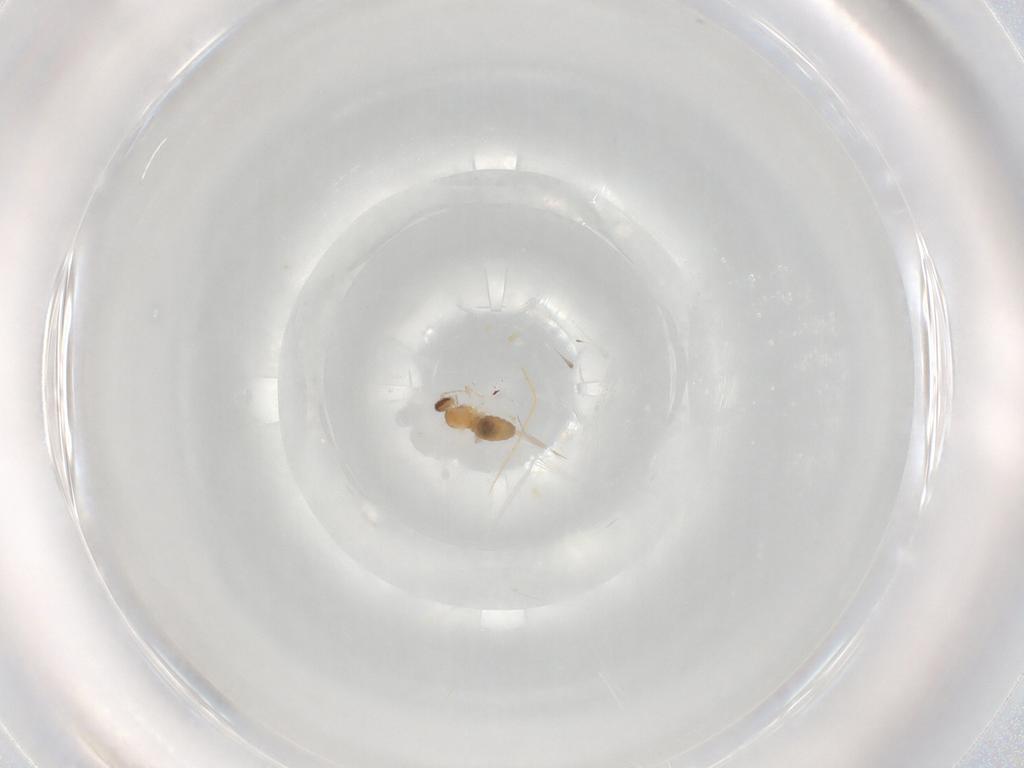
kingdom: Animalia
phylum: Arthropoda
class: Insecta
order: Diptera
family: Cecidomyiidae
